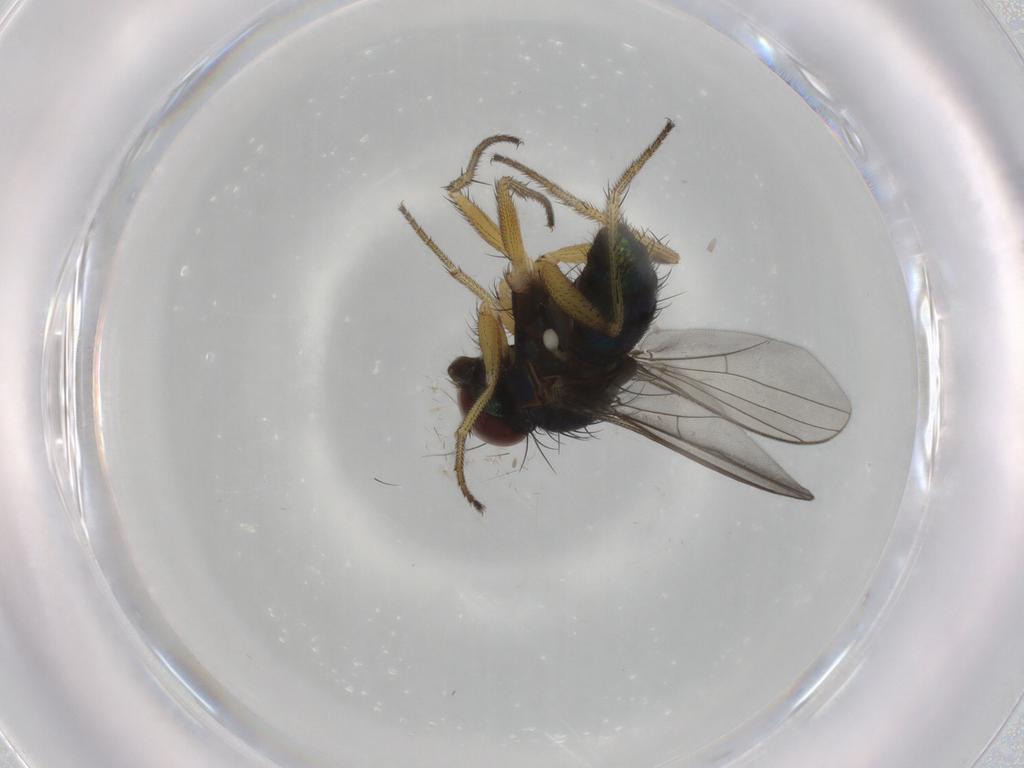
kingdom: Animalia
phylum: Arthropoda
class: Insecta
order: Diptera
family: Dolichopodidae
